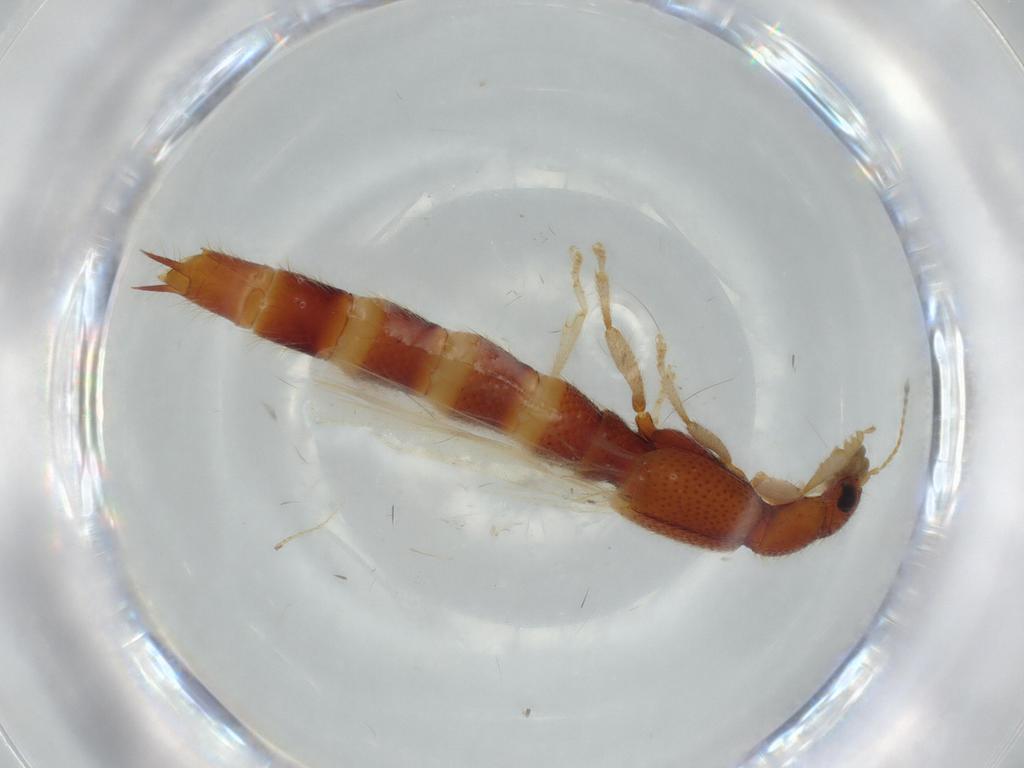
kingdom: Animalia
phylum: Arthropoda
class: Insecta
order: Coleoptera
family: Staphylinidae
